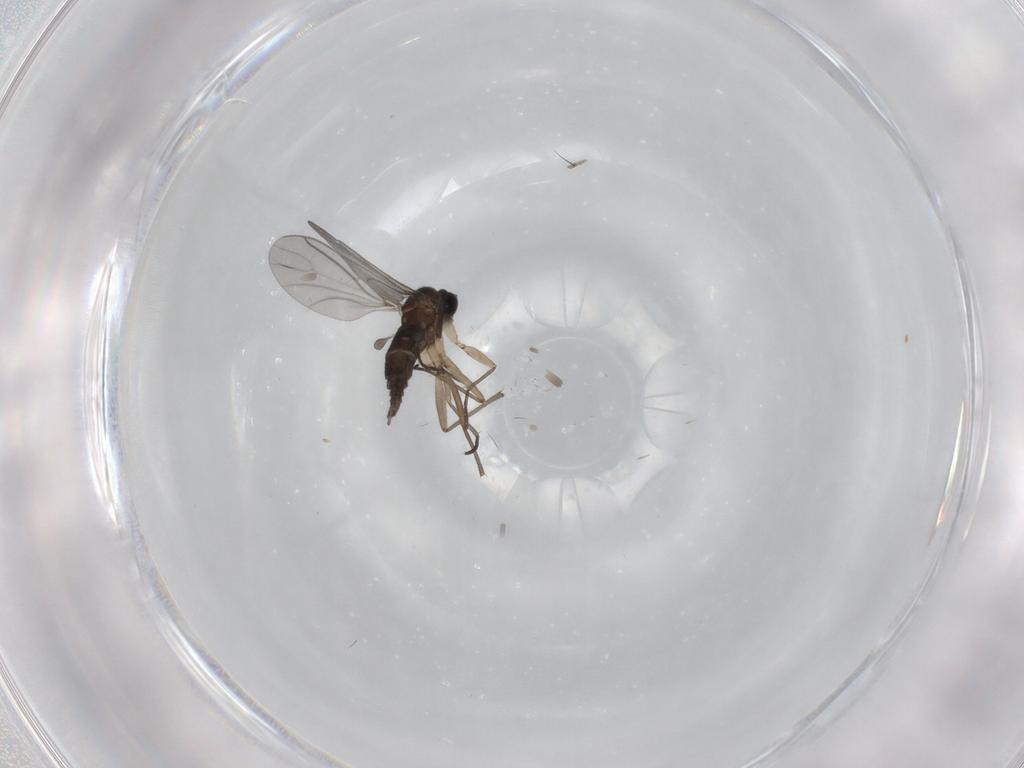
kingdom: Animalia
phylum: Arthropoda
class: Insecta
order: Diptera
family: Sciaridae
